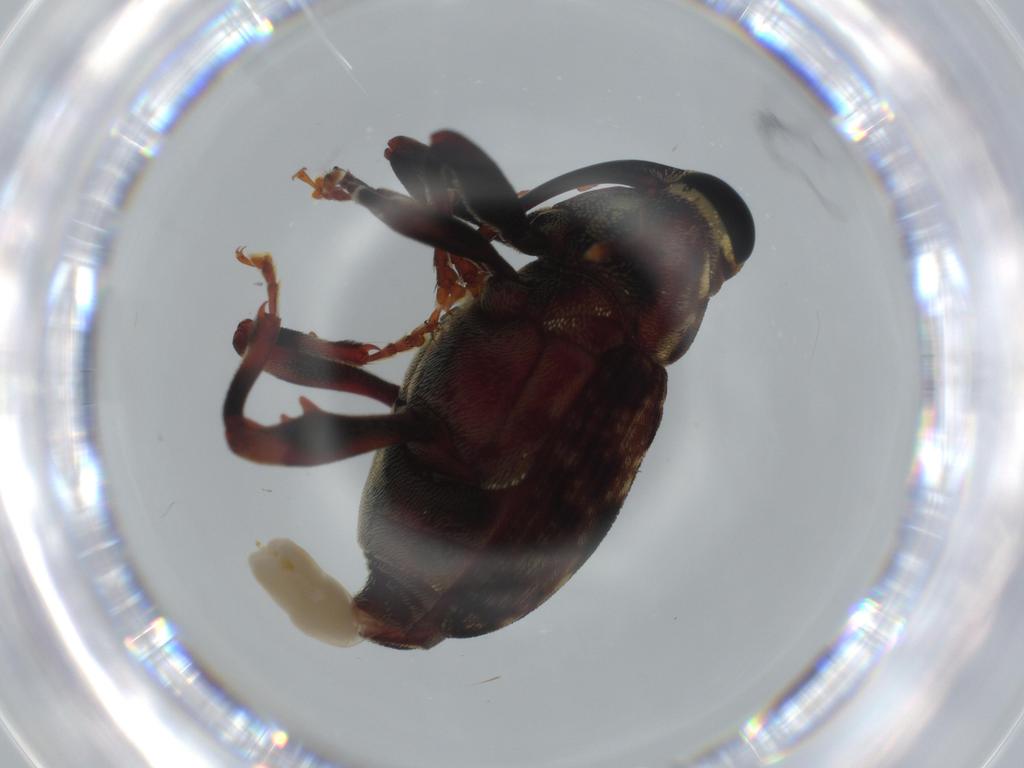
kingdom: Animalia
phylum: Arthropoda
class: Insecta
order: Coleoptera
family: Curculionidae
